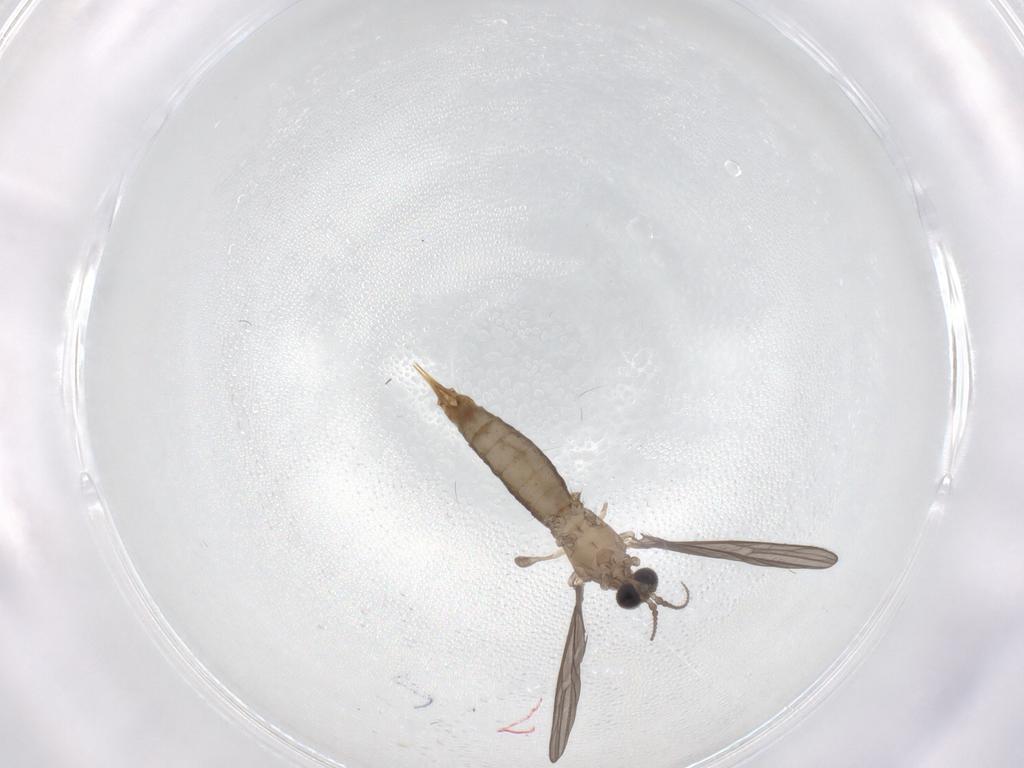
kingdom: Animalia
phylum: Arthropoda
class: Insecta
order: Diptera
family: Limoniidae
